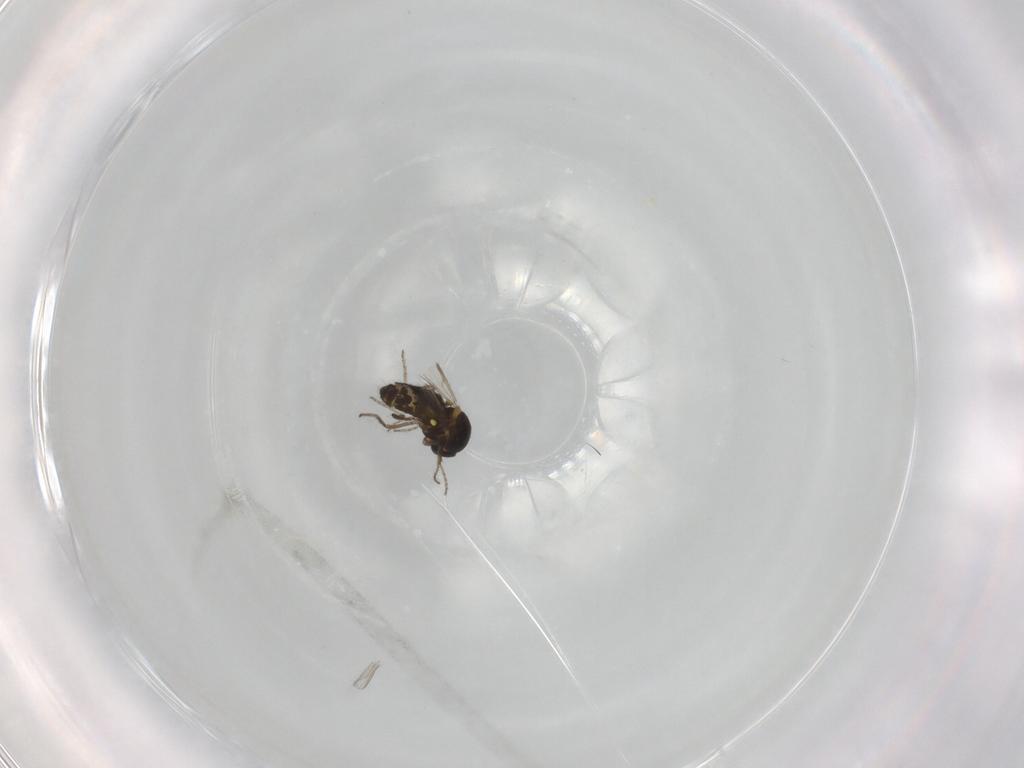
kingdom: Animalia
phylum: Arthropoda
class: Insecta
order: Diptera
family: Ceratopogonidae
